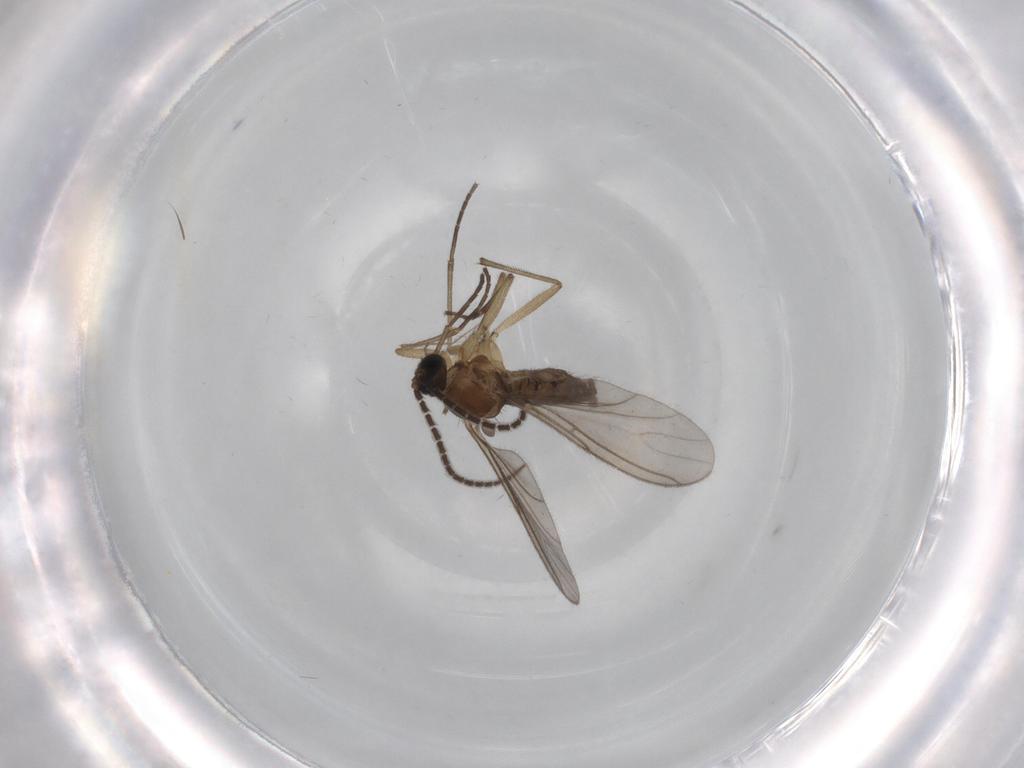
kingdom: Animalia
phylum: Arthropoda
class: Insecta
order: Diptera
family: Sciaridae
